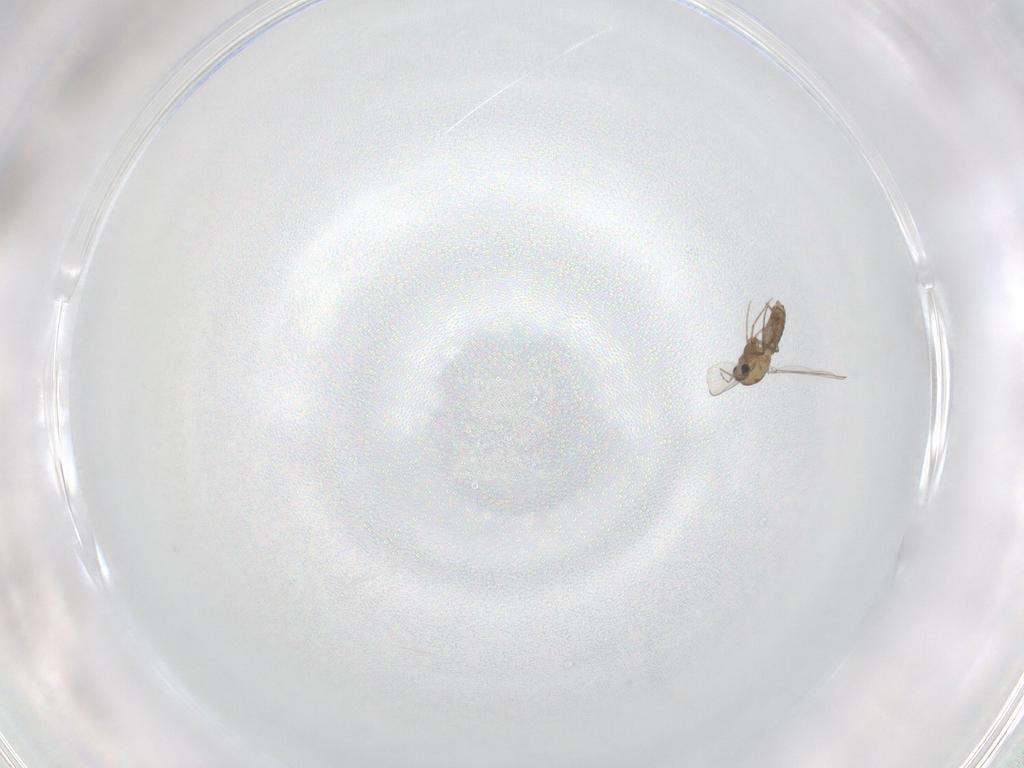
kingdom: Animalia
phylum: Arthropoda
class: Insecta
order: Diptera
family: Chironomidae
